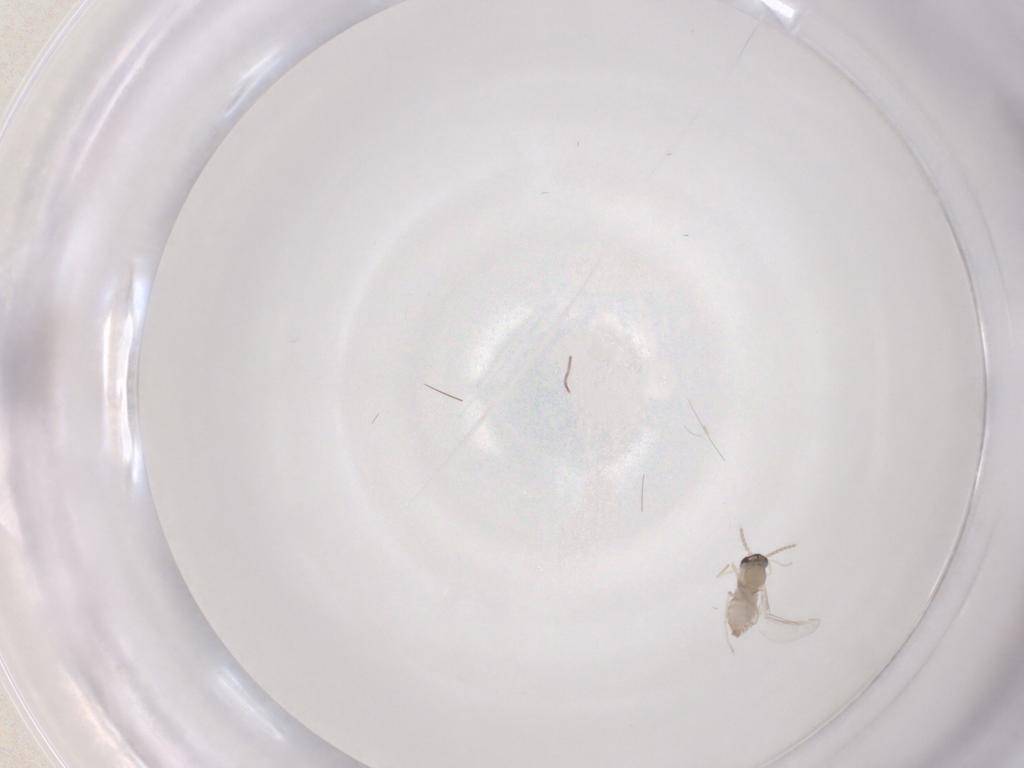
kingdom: Animalia
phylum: Arthropoda
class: Insecta
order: Diptera
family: Cecidomyiidae
